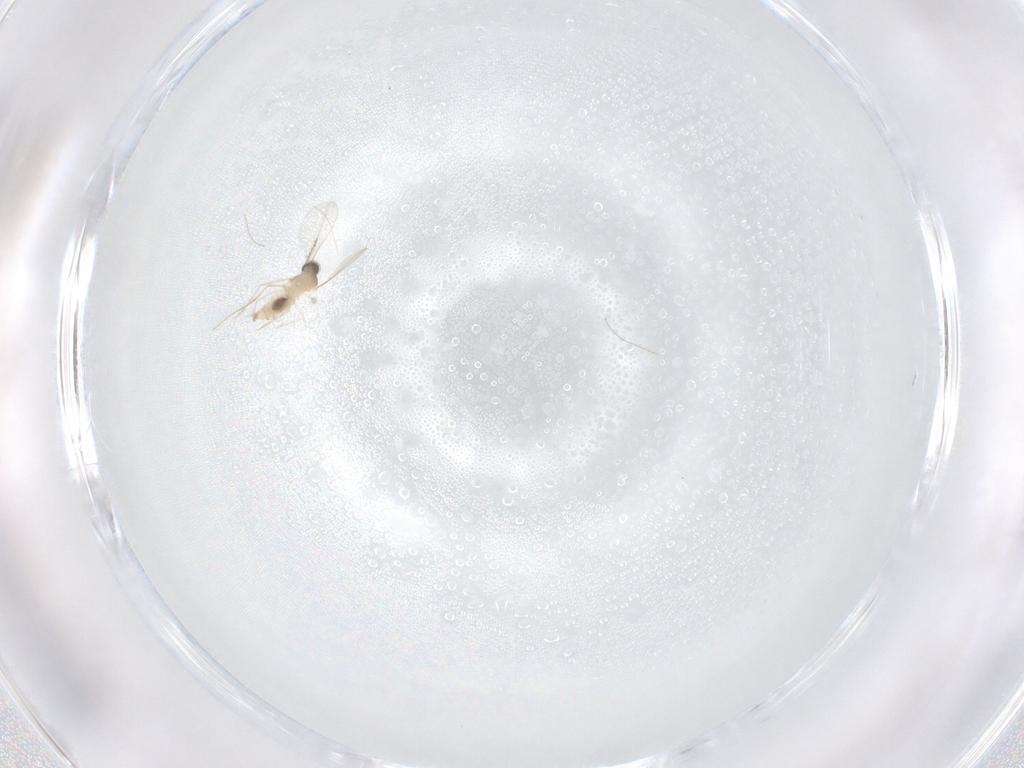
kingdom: Animalia
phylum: Arthropoda
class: Insecta
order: Diptera
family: Cecidomyiidae
